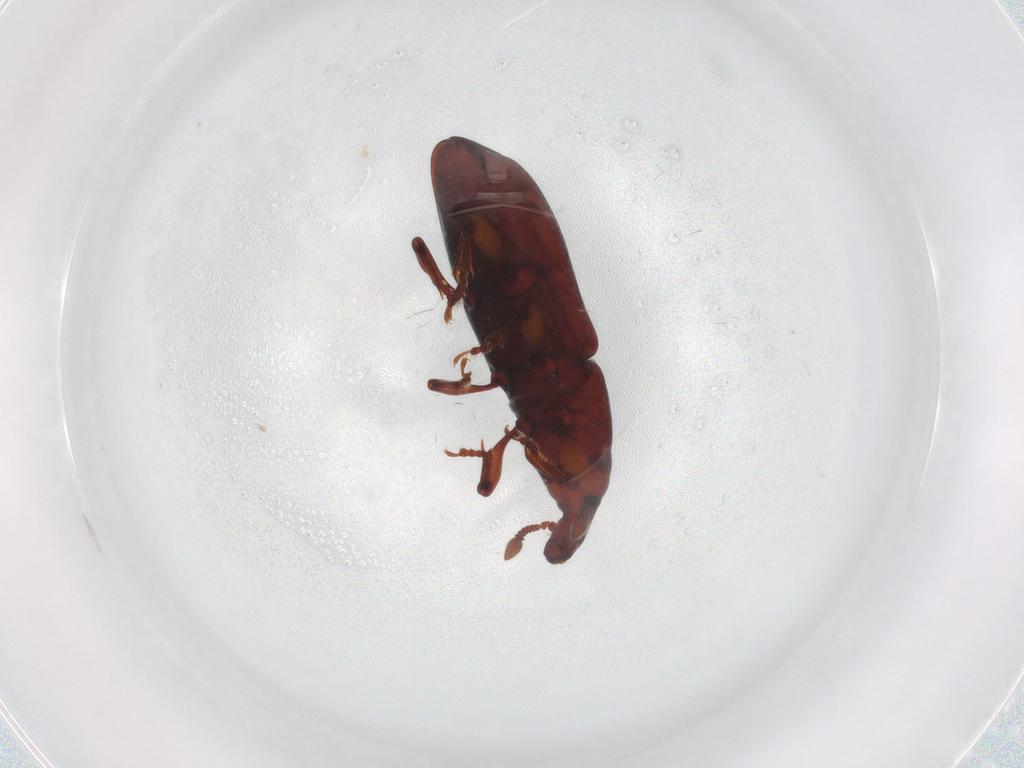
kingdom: Animalia
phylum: Arthropoda
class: Insecta
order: Coleoptera
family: Curculionidae
